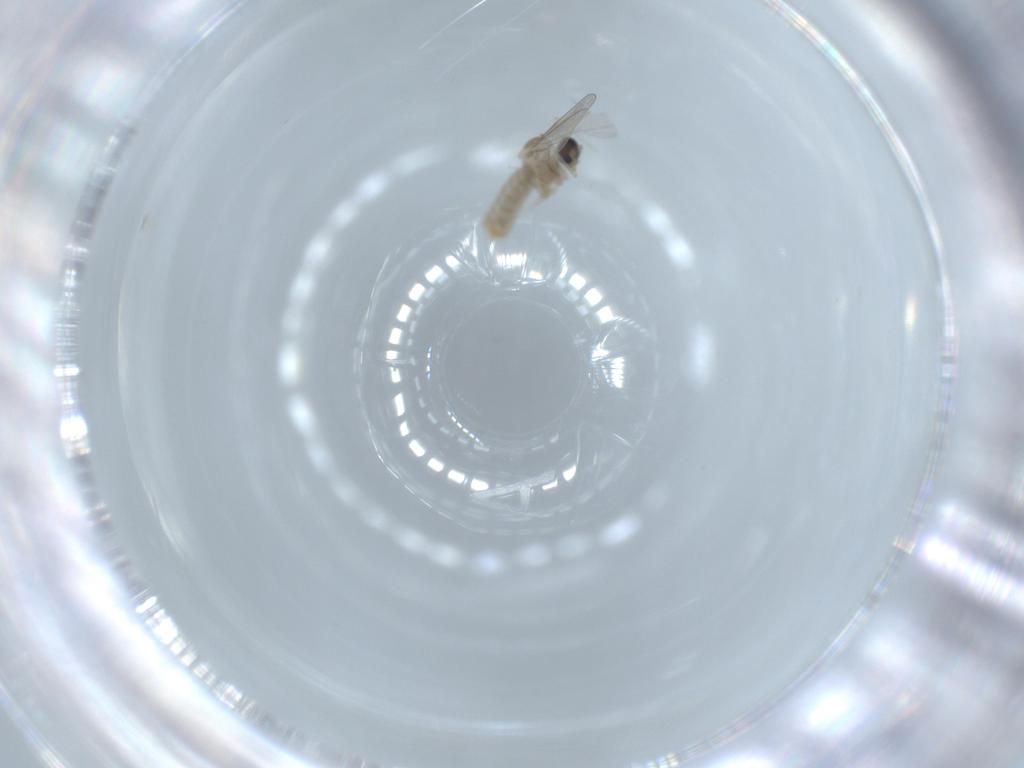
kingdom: Animalia
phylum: Arthropoda
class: Insecta
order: Diptera
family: Cecidomyiidae
